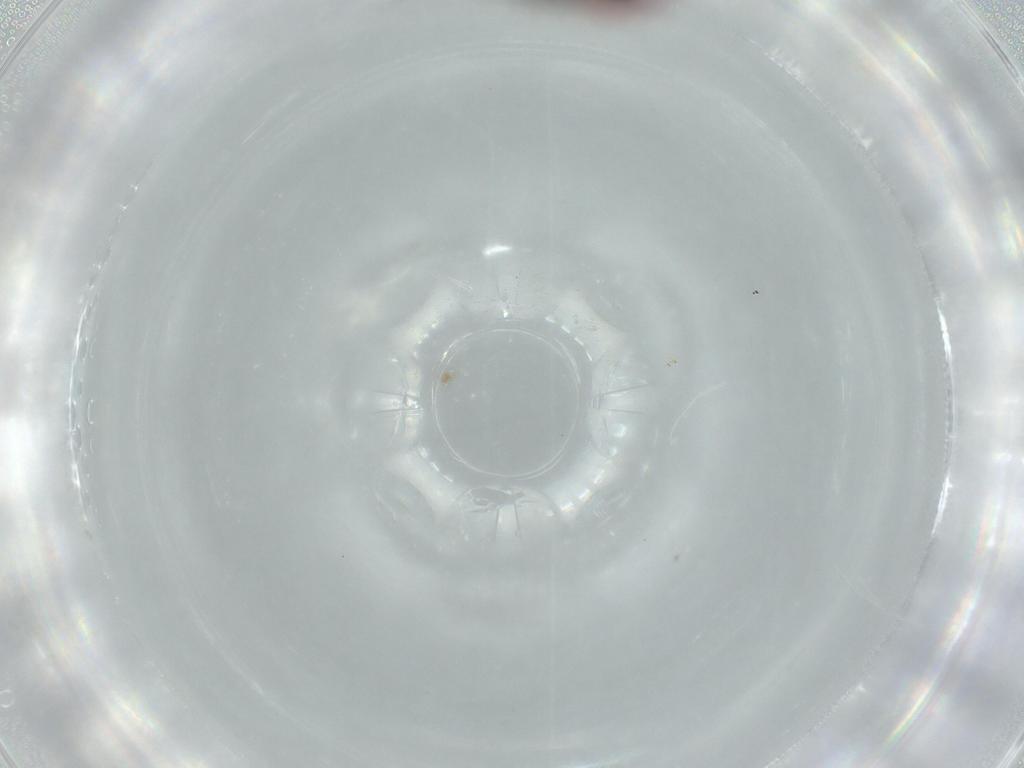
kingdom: Animalia
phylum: Arthropoda
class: Insecta
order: Hemiptera
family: Rhyparochromidae
